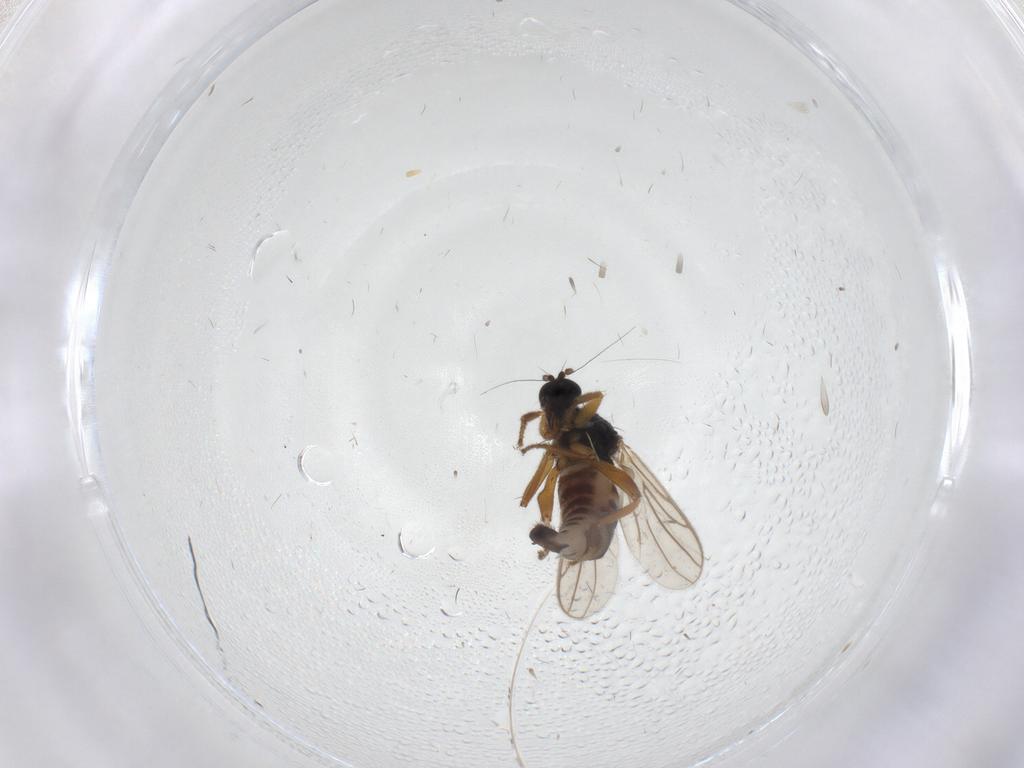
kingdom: Animalia
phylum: Arthropoda
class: Insecta
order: Diptera
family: Hybotidae
